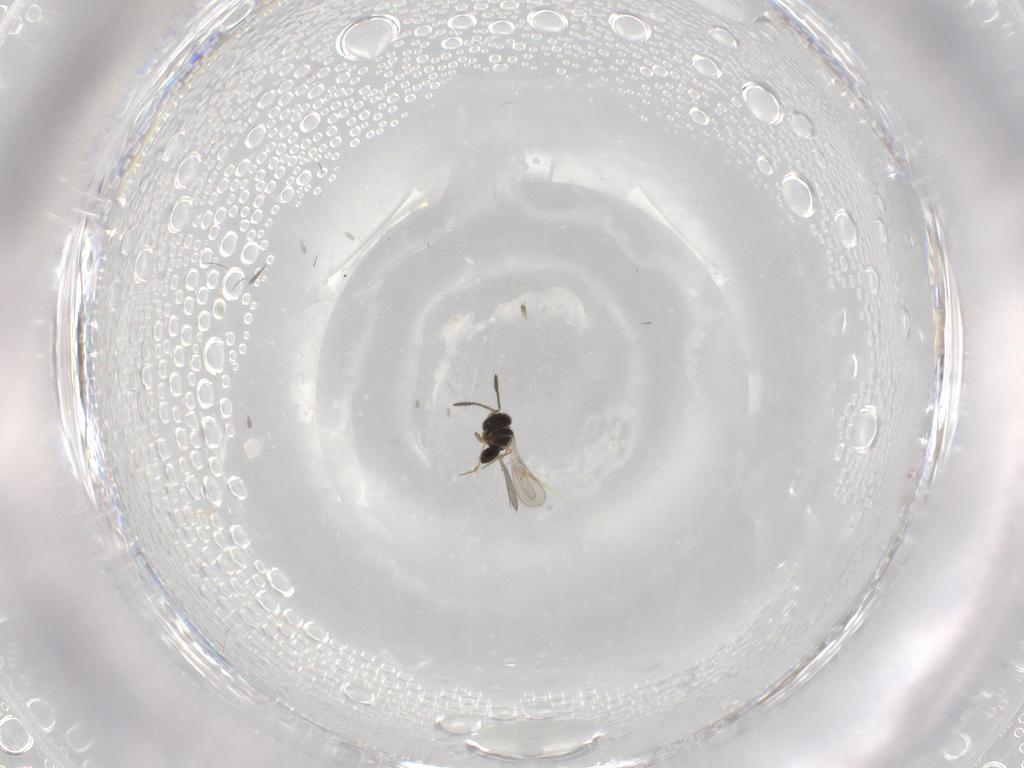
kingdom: Animalia
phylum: Arthropoda
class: Insecta
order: Hymenoptera
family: Scelionidae
